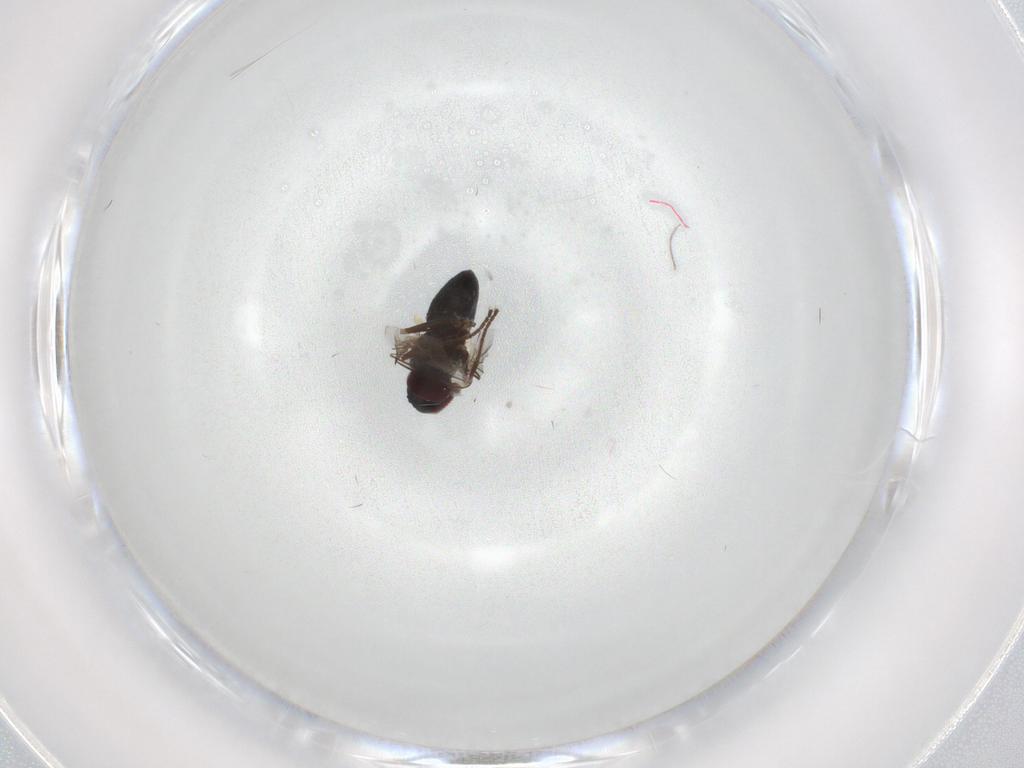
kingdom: Animalia
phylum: Arthropoda
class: Insecta
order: Diptera
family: Dolichopodidae
